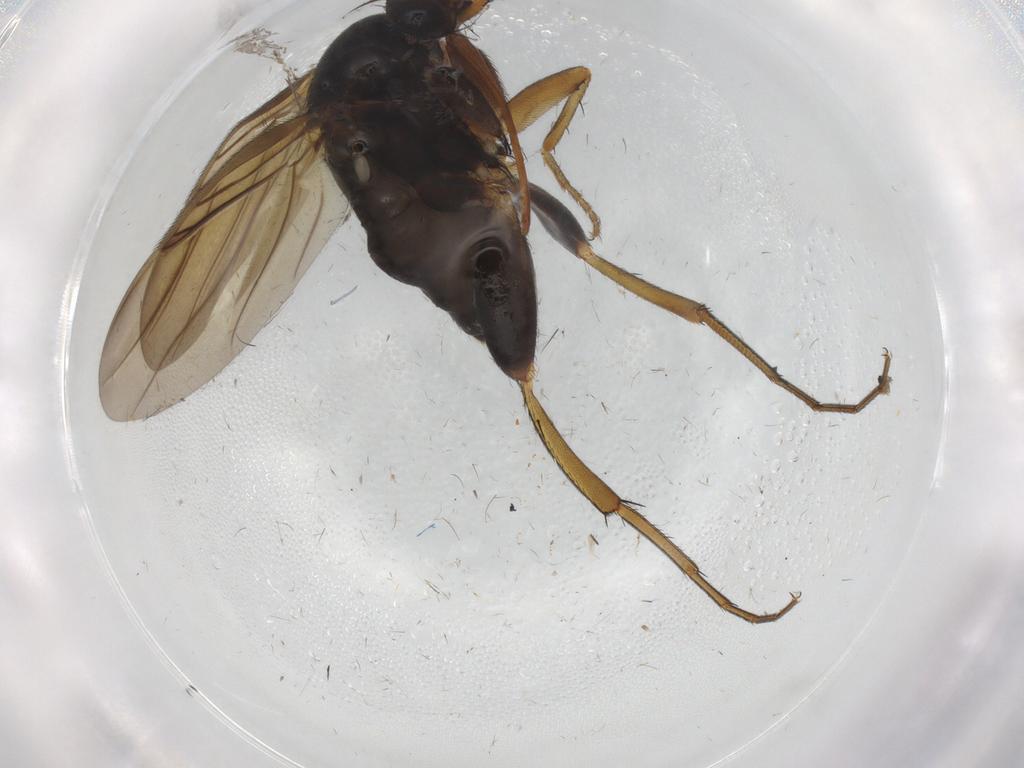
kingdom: Animalia
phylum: Arthropoda
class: Insecta
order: Diptera
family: Phoridae
